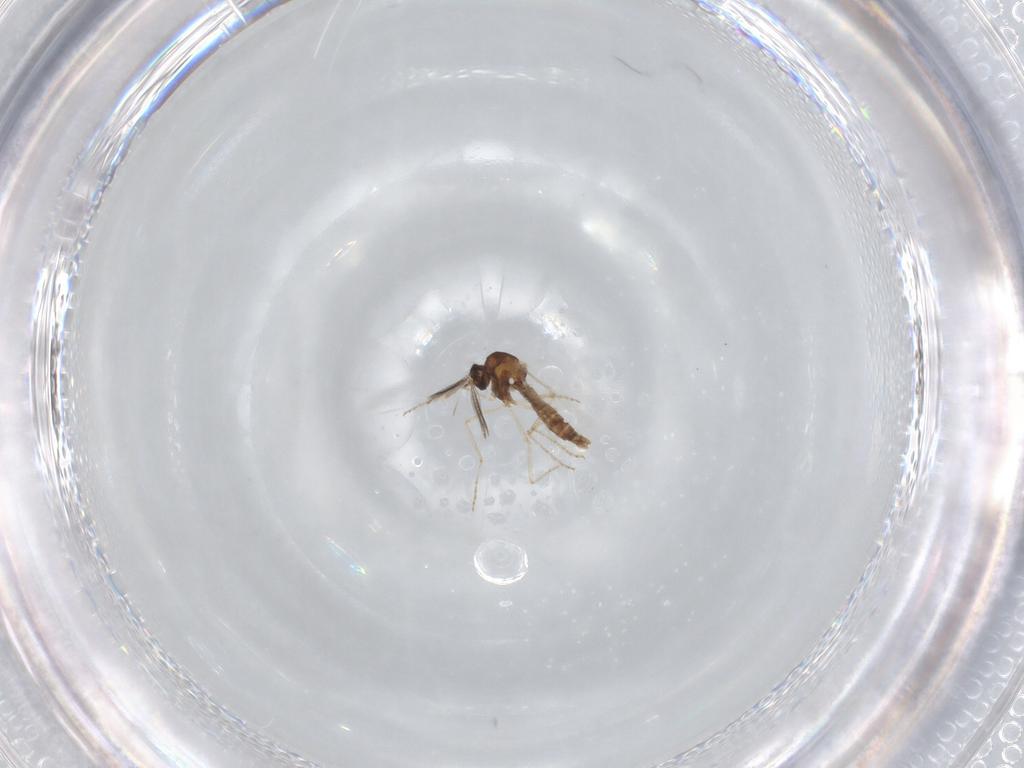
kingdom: Animalia
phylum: Arthropoda
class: Insecta
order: Diptera
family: Ceratopogonidae
